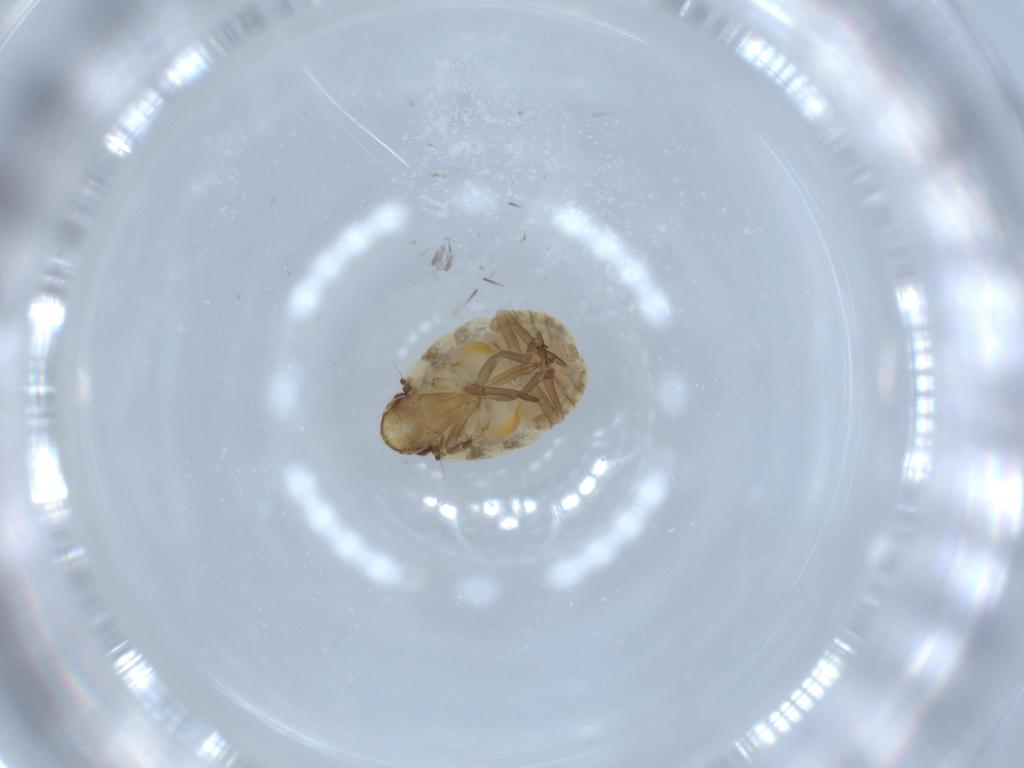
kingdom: Animalia
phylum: Arthropoda
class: Insecta
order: Hemiptera
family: Flatidae
